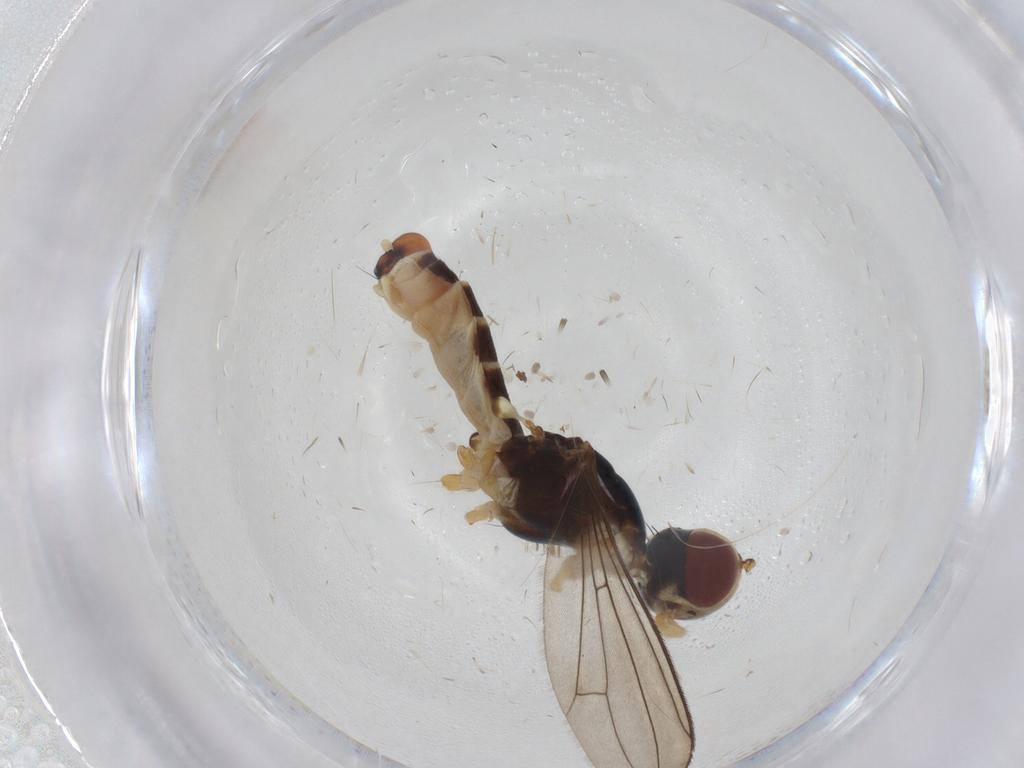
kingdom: Animalia
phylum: Arthropoda
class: Insecta
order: Diptera
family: Micropezidae
